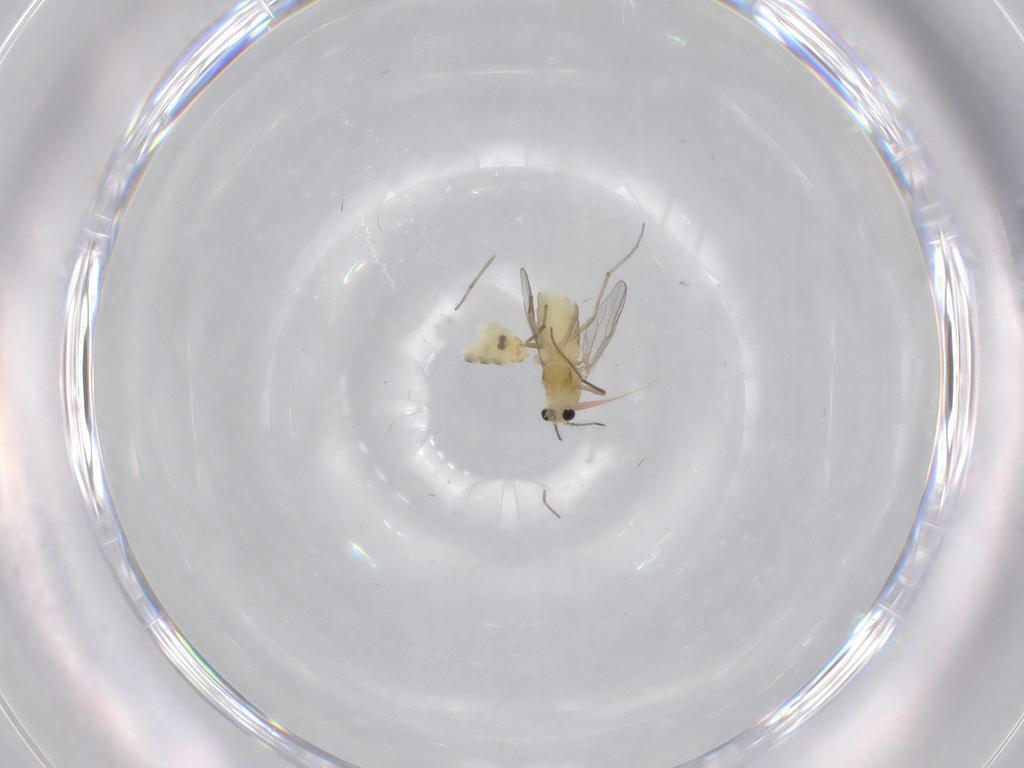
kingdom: Animalia
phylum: Arthropoda
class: Insecta
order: Diptera
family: Chironomidae
